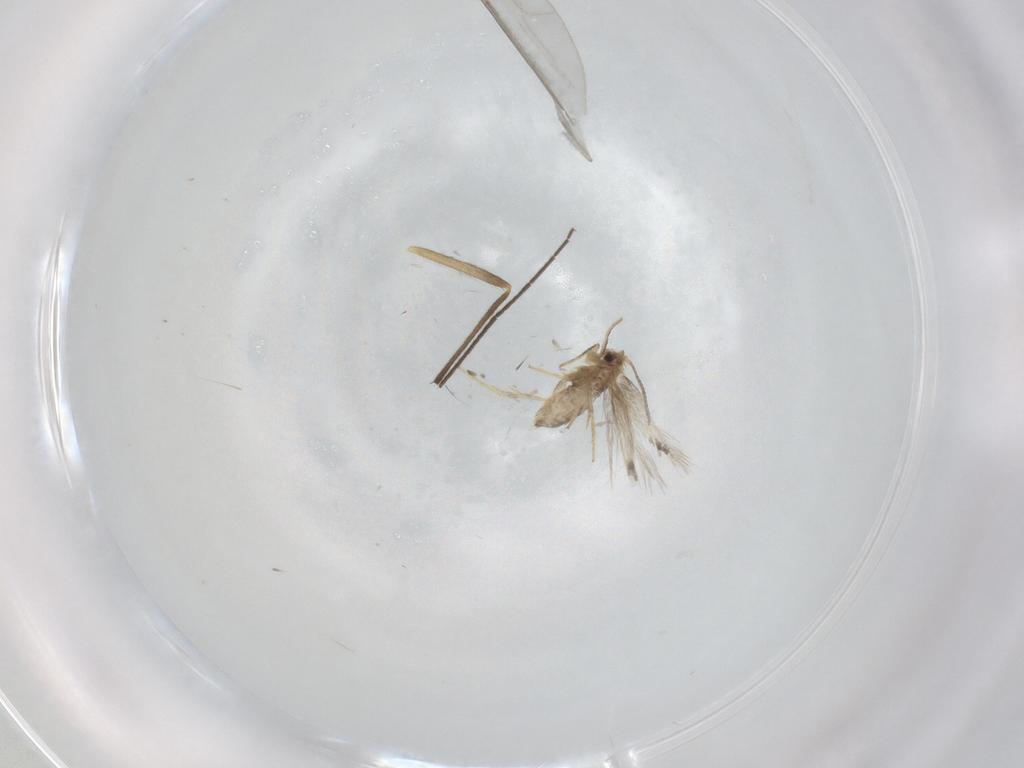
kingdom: Animalia
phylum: Arthropoda
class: Insecta
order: Lepidoptera
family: Nepticulidae
